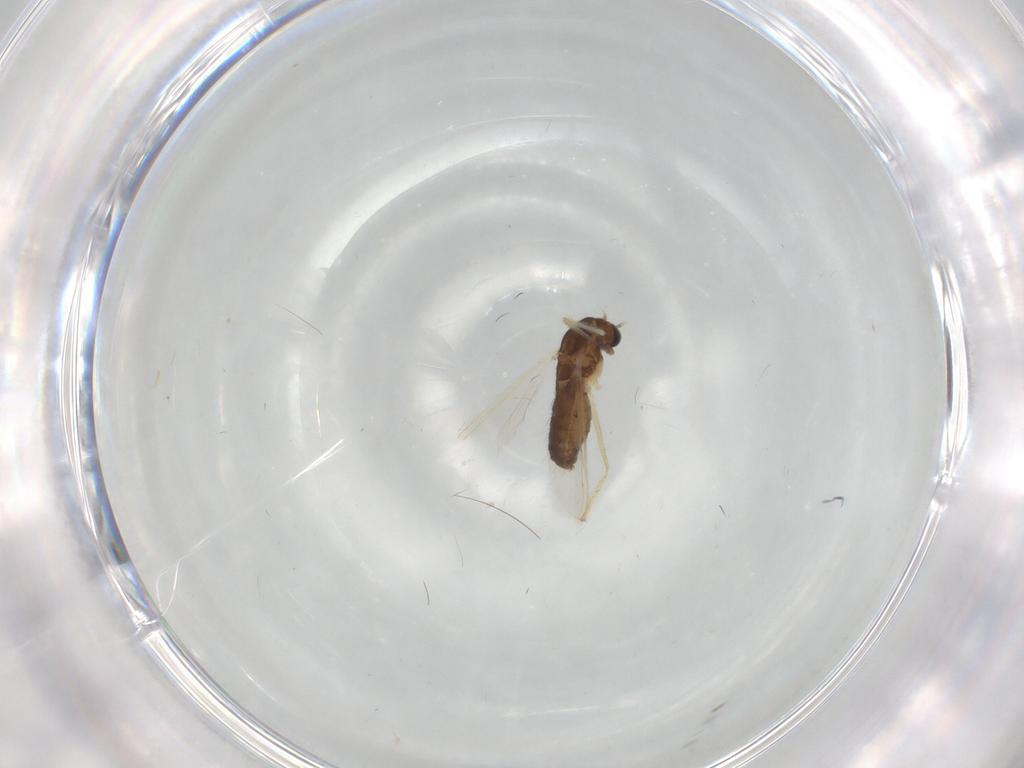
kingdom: Animalia
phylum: Arthropoda
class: Insecta
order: Diptera
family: Chironomidae
